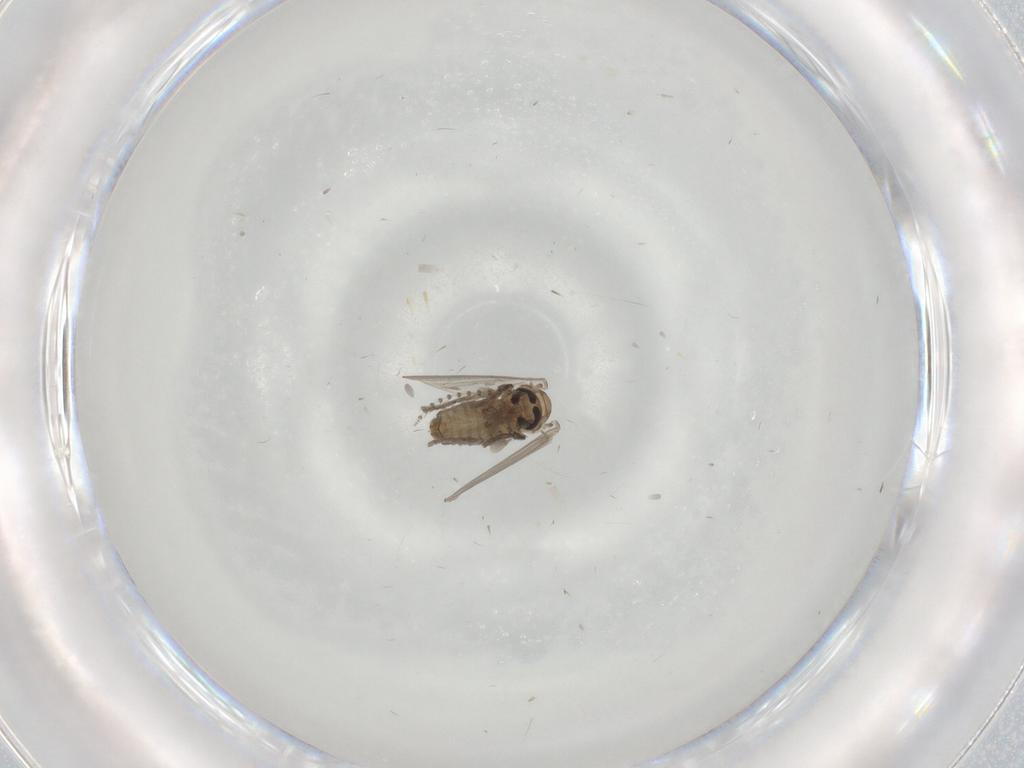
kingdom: Animalia
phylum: Arthropoda
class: Insecta
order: Diptera
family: Psychodidae
